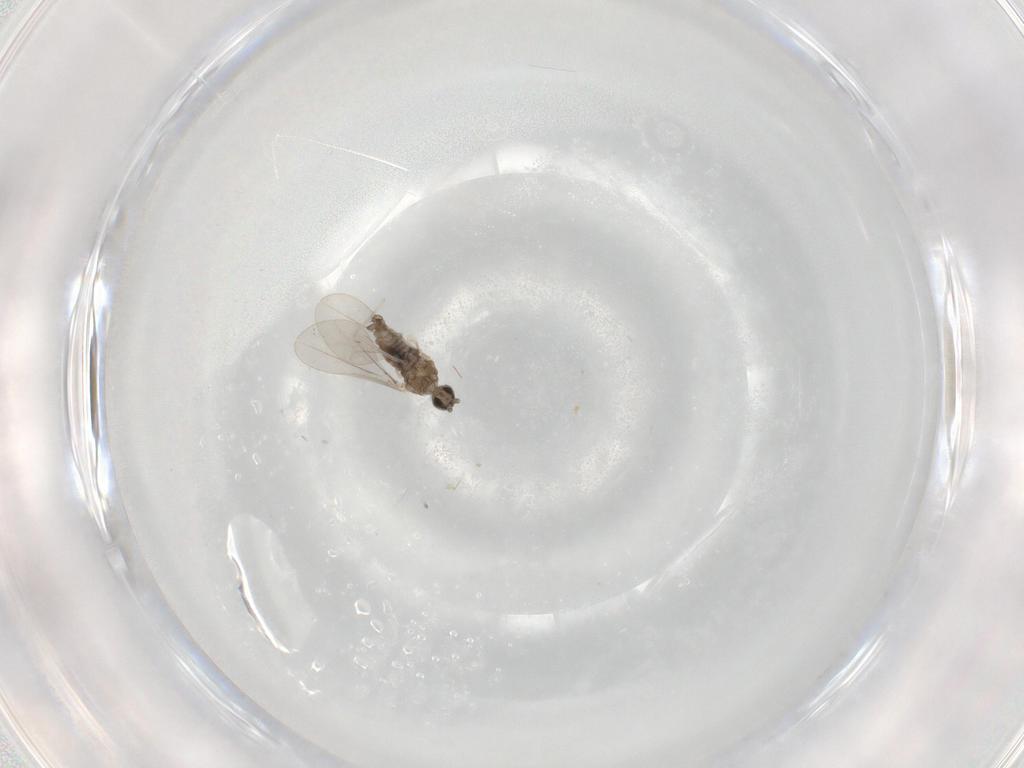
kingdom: Animalia
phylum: Arthropoda
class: Insecta
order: Diptera
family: Cecidomyiidae
